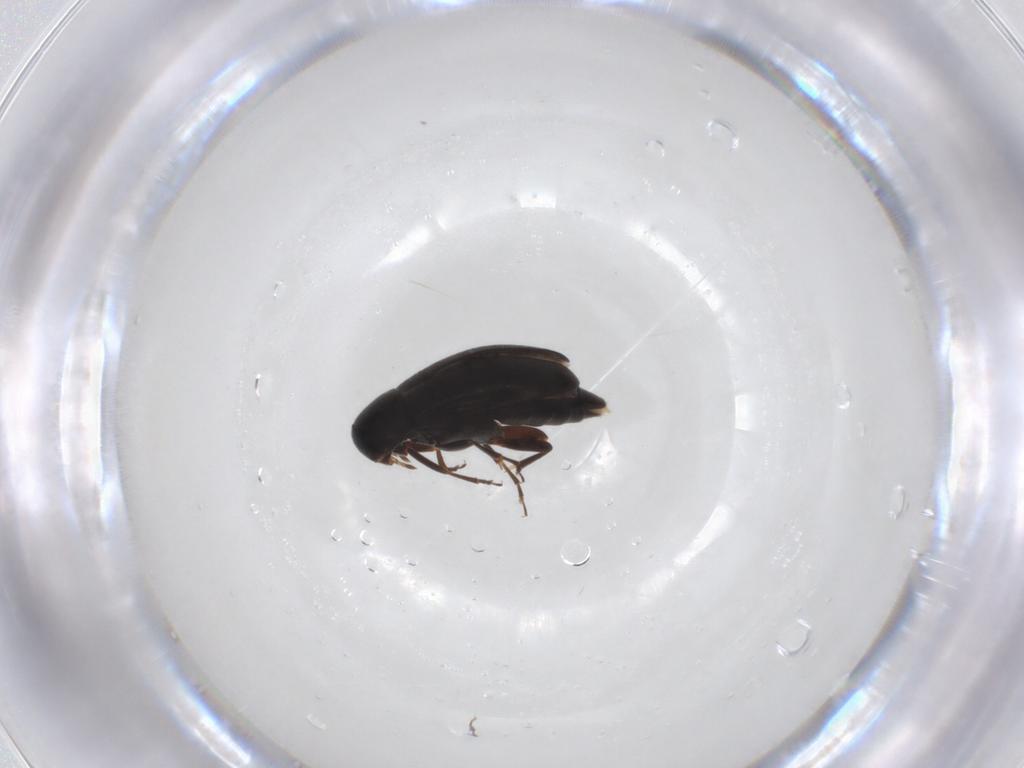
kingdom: Animalia
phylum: Arthropoda
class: Insecta
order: Coleoptera
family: Scraptiidae
